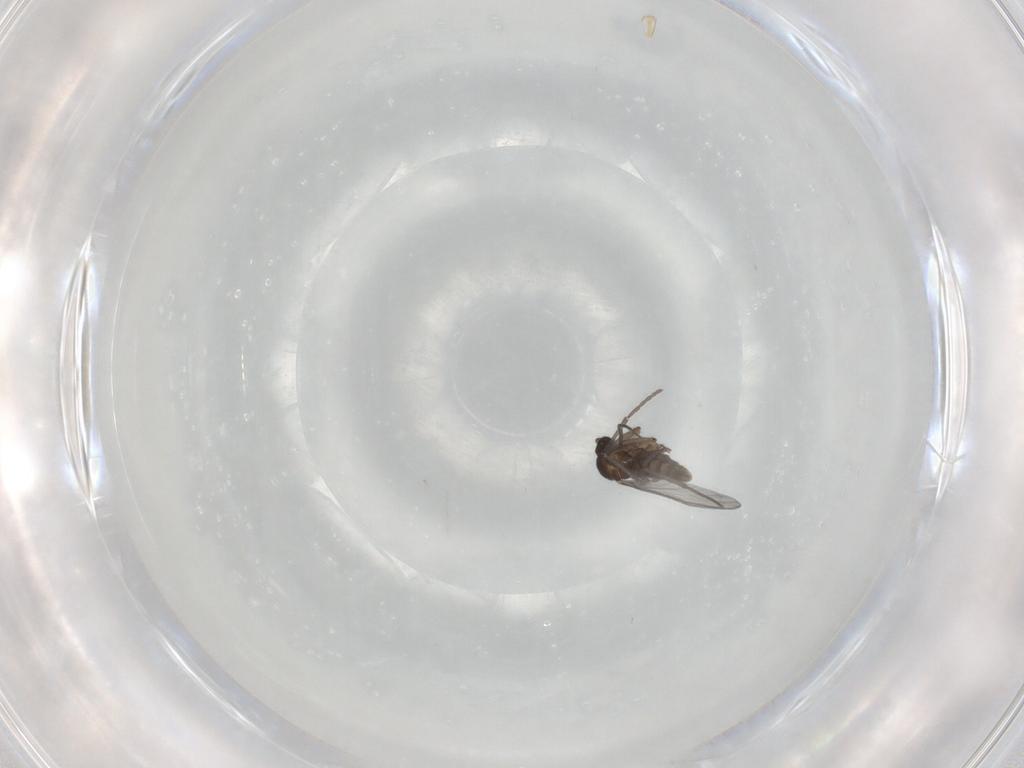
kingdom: Animalia
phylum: Arthropoda
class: Insecta
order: Diptera
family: Sciaridae
